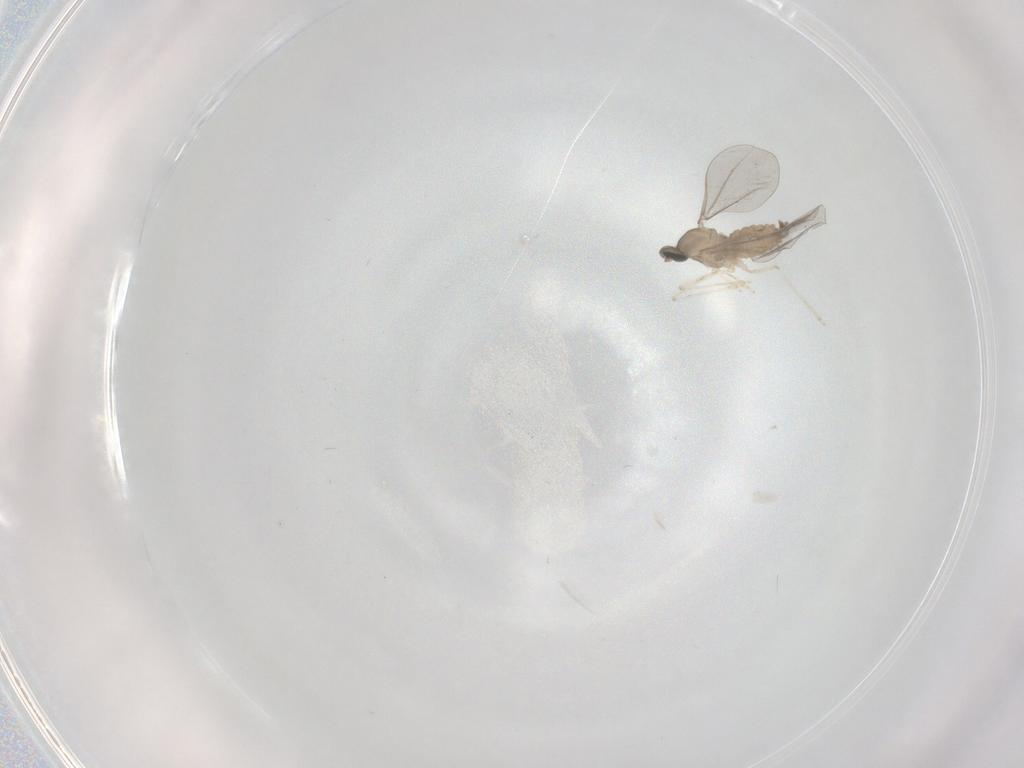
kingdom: Animalia
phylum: Arthropoda
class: Insecta
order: Diptera
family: Cecidomyiidae
